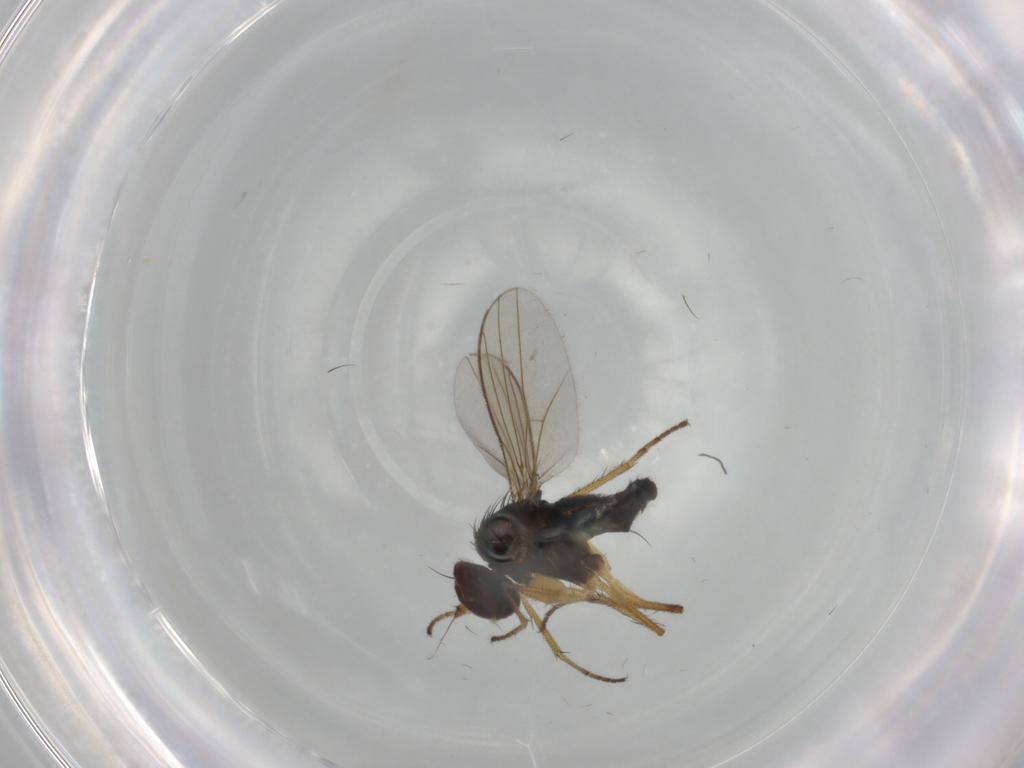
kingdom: Animalia
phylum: Arthropoda
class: Insecta
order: Diptera
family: Dolichopodidae
